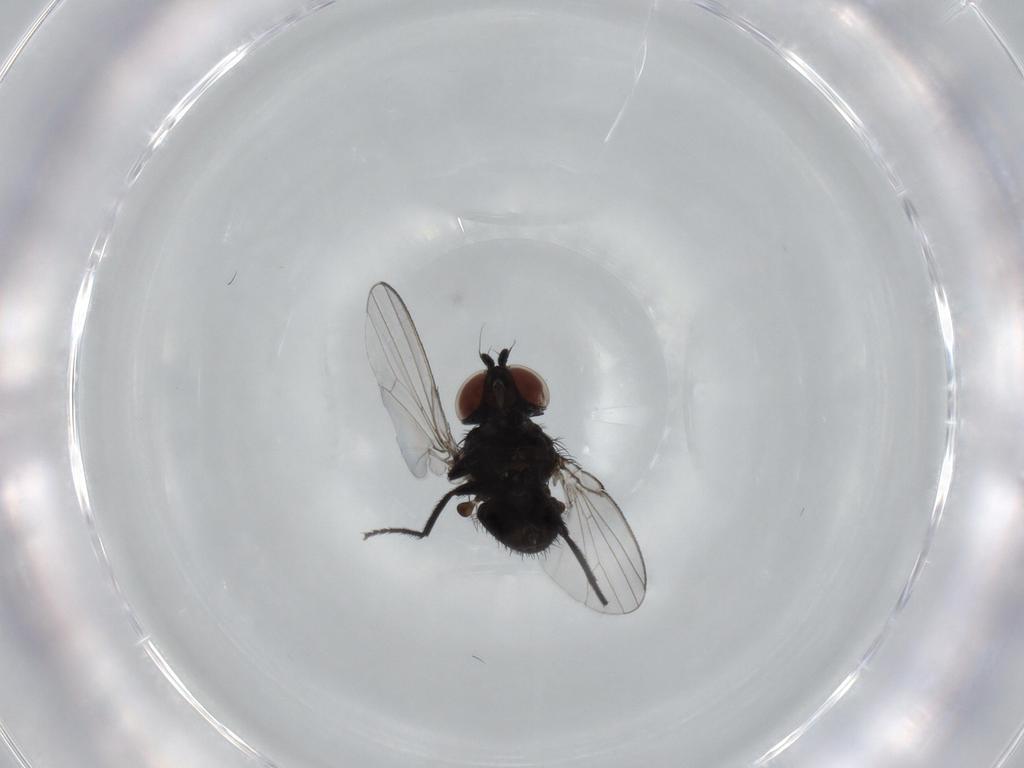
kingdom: Animalia
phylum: Arthropoda
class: Insecta
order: Diptera
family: Milichiidae
